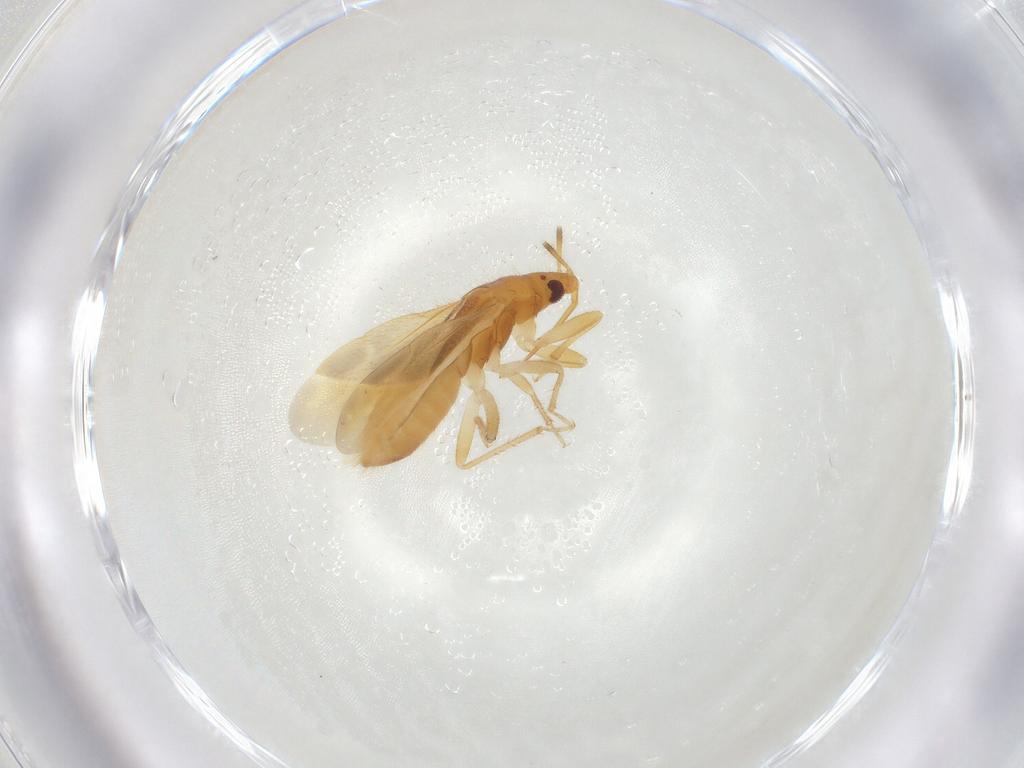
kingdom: Animalia
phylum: Arthropoda
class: Insecta
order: Hemiptera
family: Lasiochilidae
